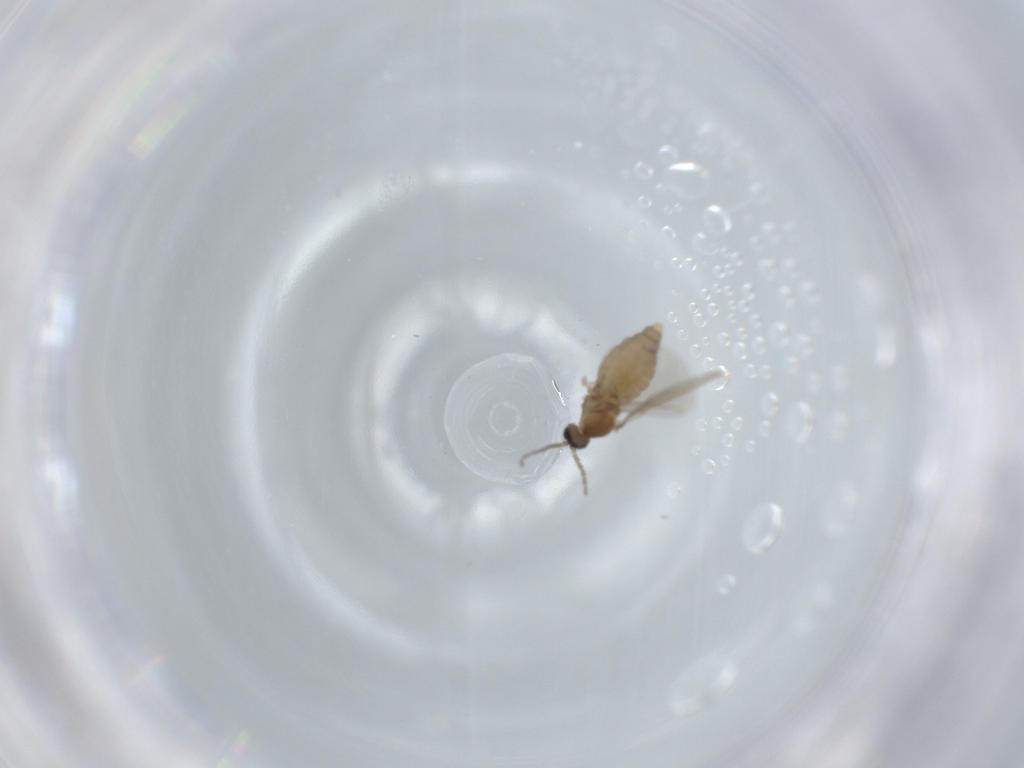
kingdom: Animalia
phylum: Arthropoda
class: Insecta
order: Diptera
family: Cecidomyiidae
